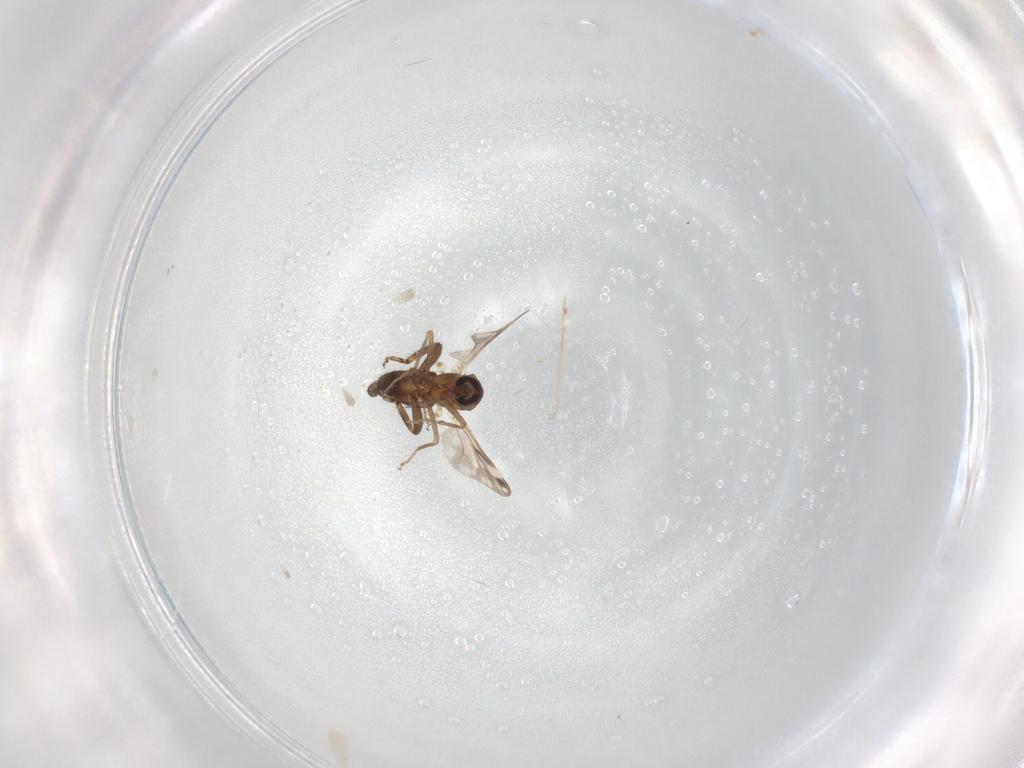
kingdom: Animalia
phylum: Arthropoda
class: Insecta
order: Diptera
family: Ceratopogonidae
